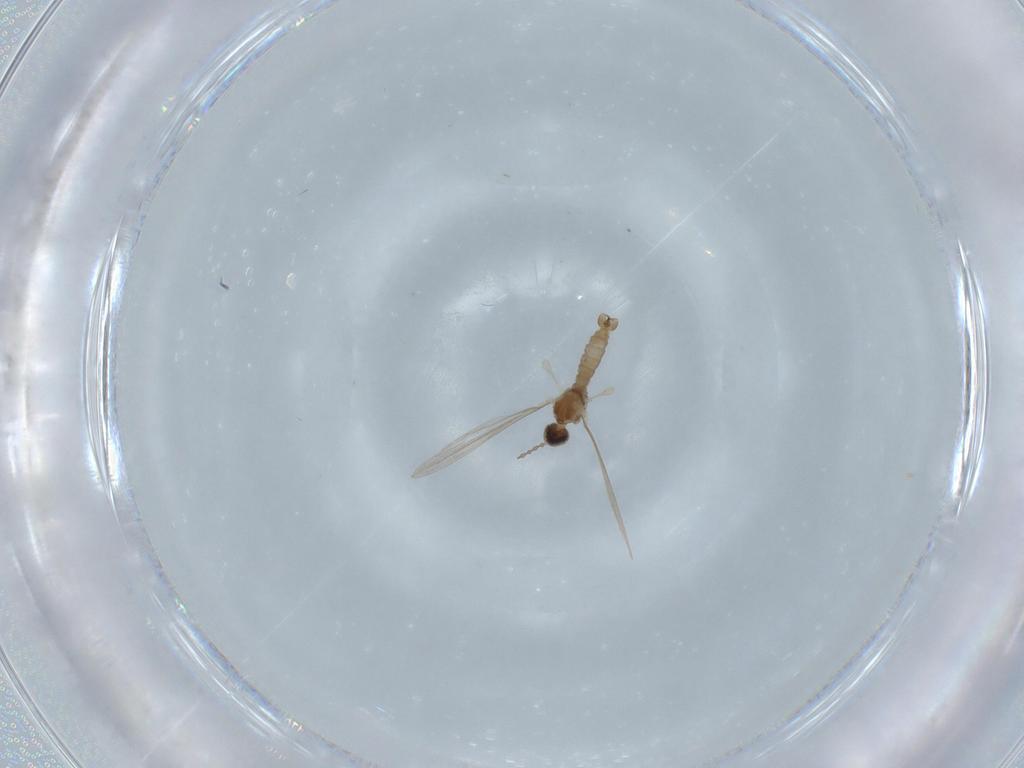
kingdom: Animalia
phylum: Arthropoda
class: Insecta
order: Diptera
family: Cecidomyiidae
